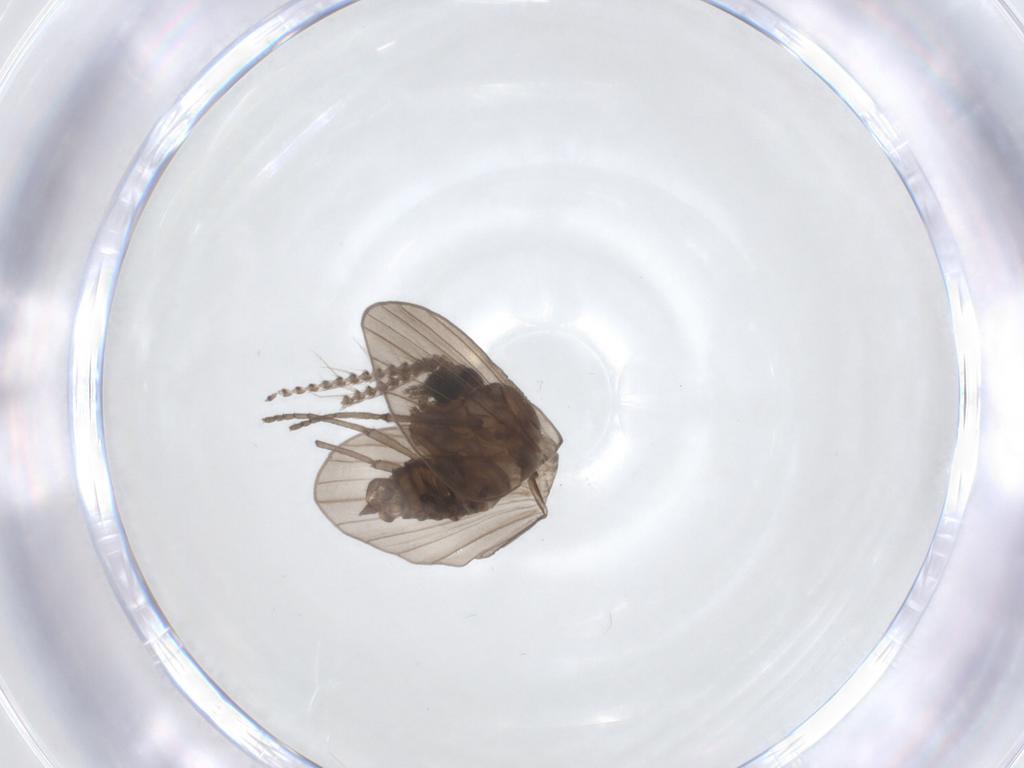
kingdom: Animalia
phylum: Arthropoda
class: Insecta
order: Diptera
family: Psychodidae
